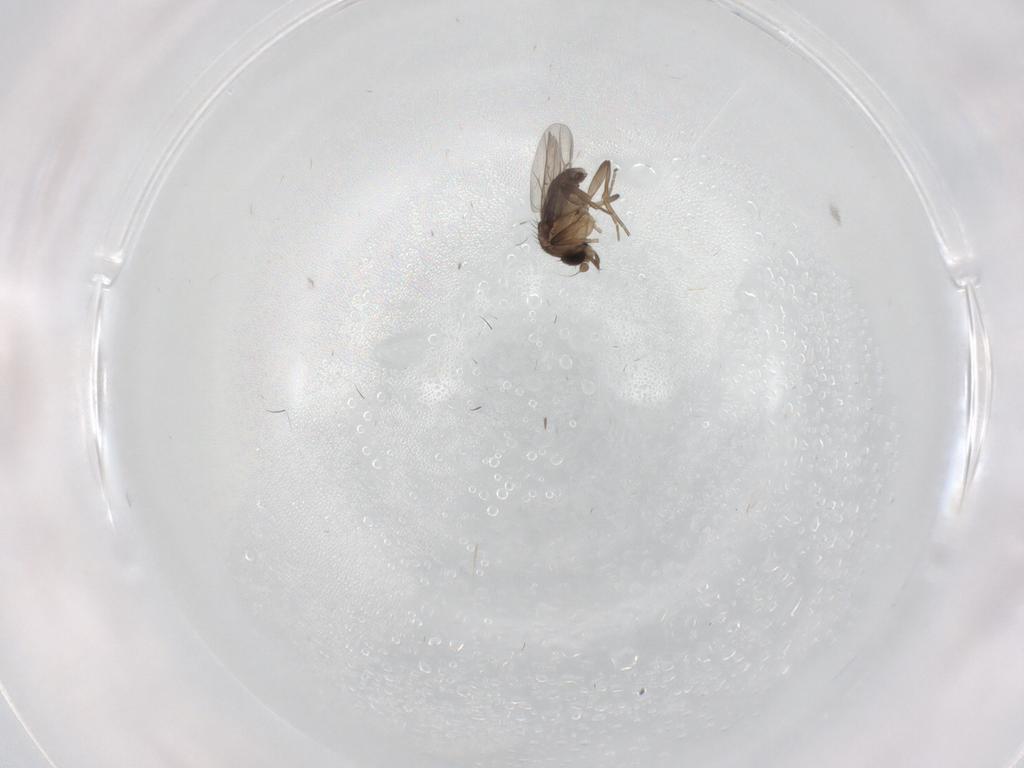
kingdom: Animalia
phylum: Arthropoda
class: Insecta
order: Diptera
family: Phoridae
